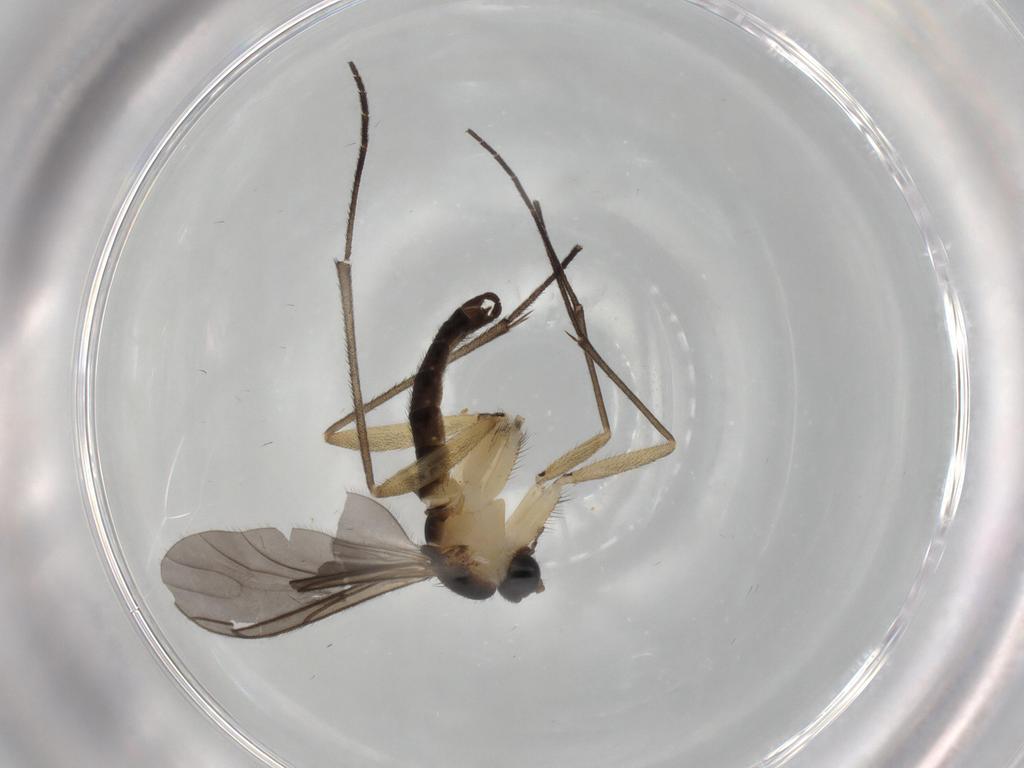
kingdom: Animalia
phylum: Arthropoda
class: Insecta
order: Diptera
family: Sciaridae
